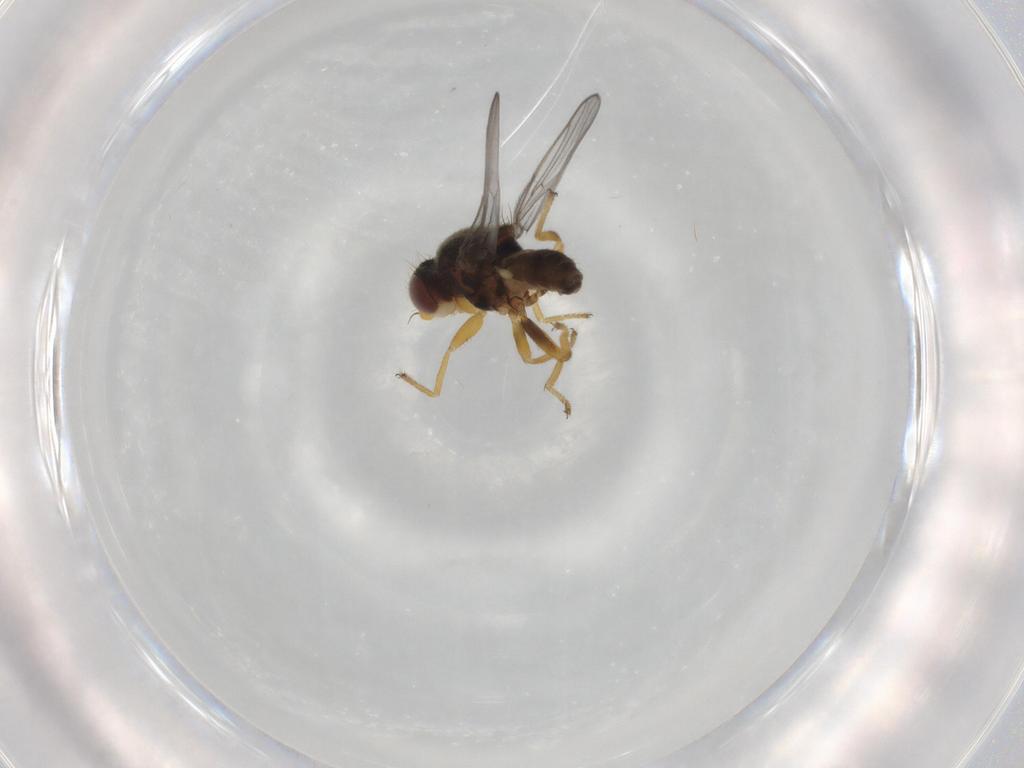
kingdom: Animalia
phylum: Arthropoda
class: Insecta
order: Diptera
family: Chloropidae
